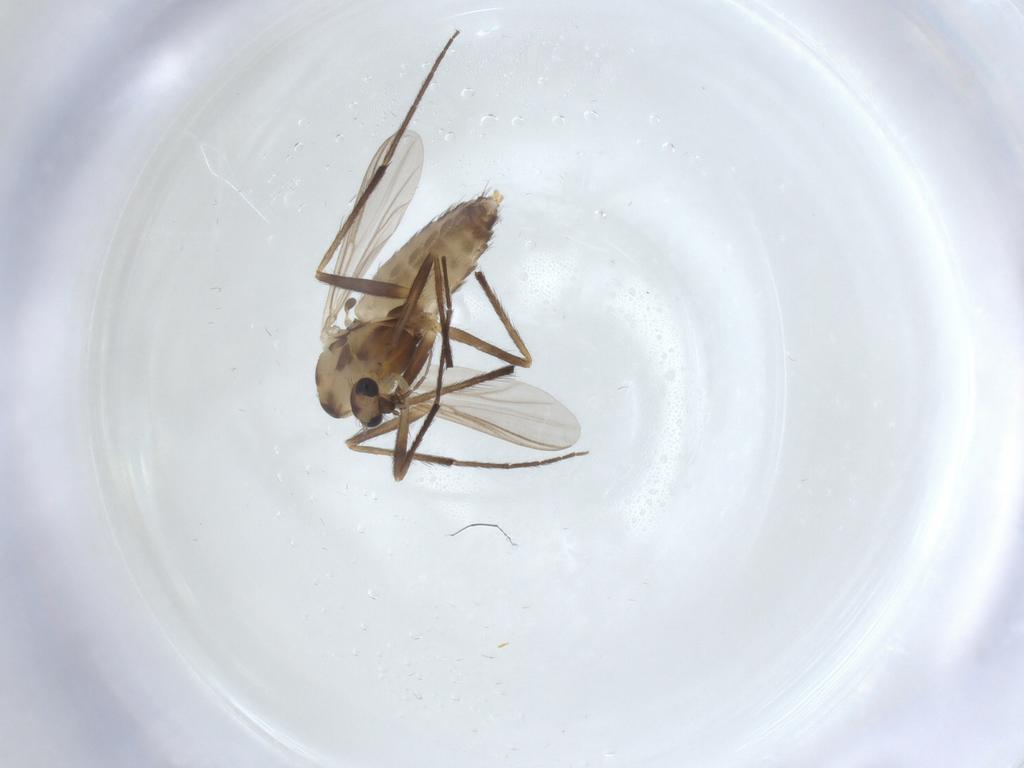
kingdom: Animalia
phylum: Arthropoda
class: Insecta
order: Diptera
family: Chironomidae
